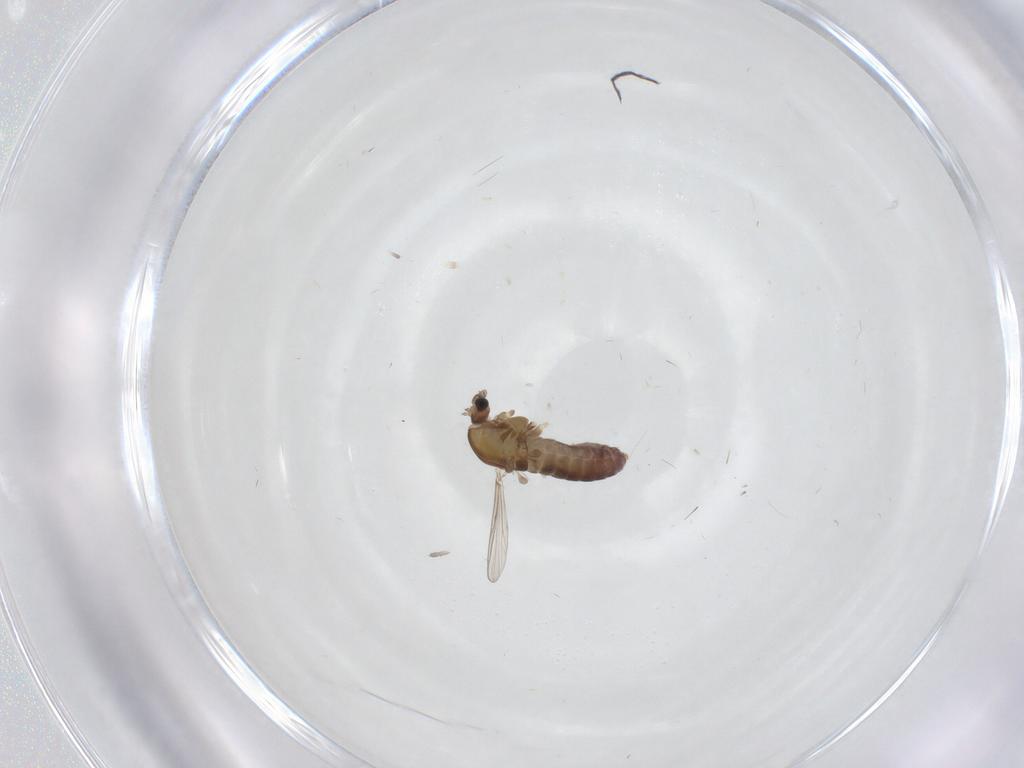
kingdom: Animalia
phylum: Arthropoda
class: Insecta
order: Diptera
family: Chironomidae
